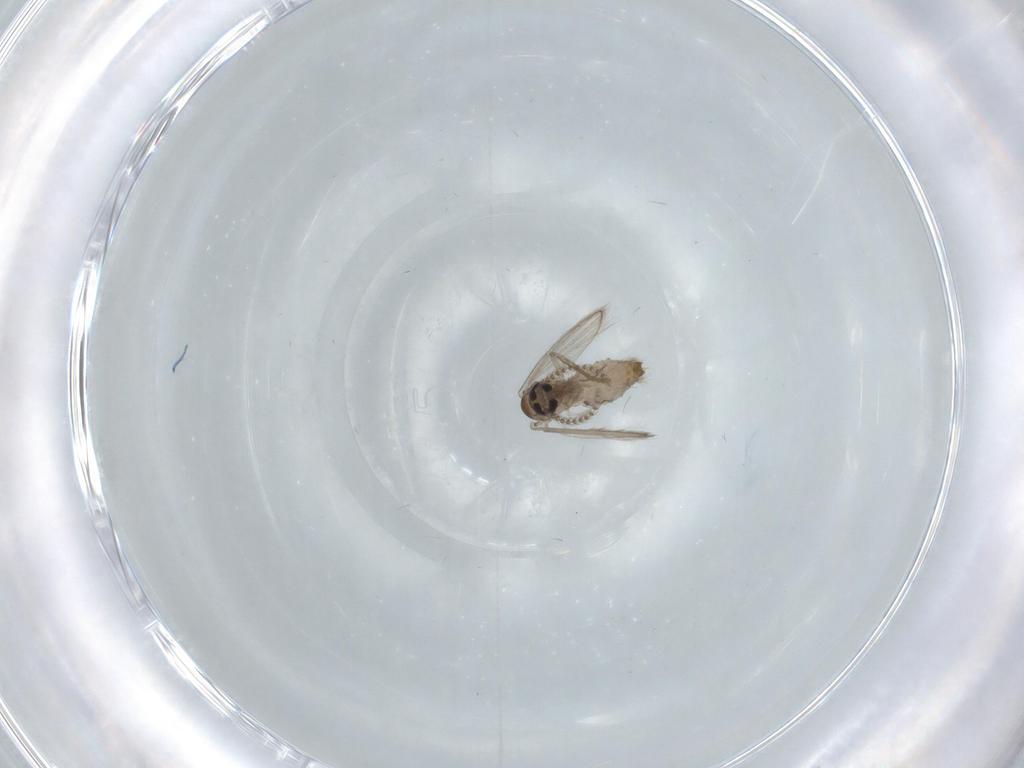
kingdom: Animalia
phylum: Arthropoda
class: Insecta
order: Diptera
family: Psychodidae
